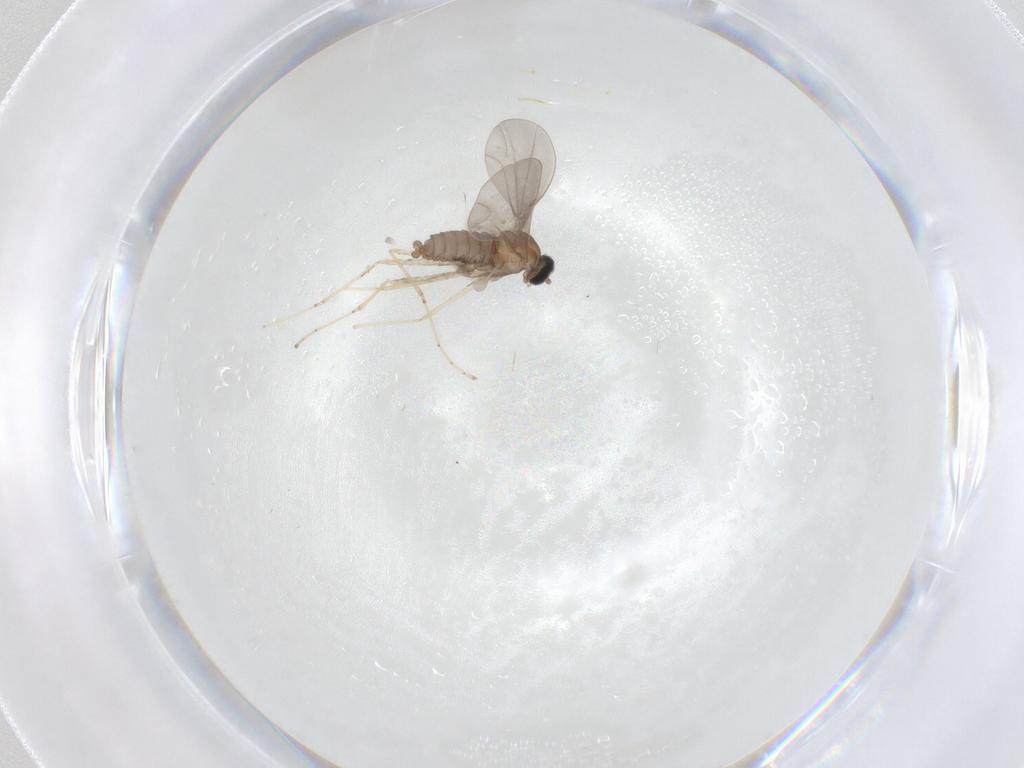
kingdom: Animalia
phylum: Arthropoda
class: Insecta
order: Diptera
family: Cecidomyiidae
